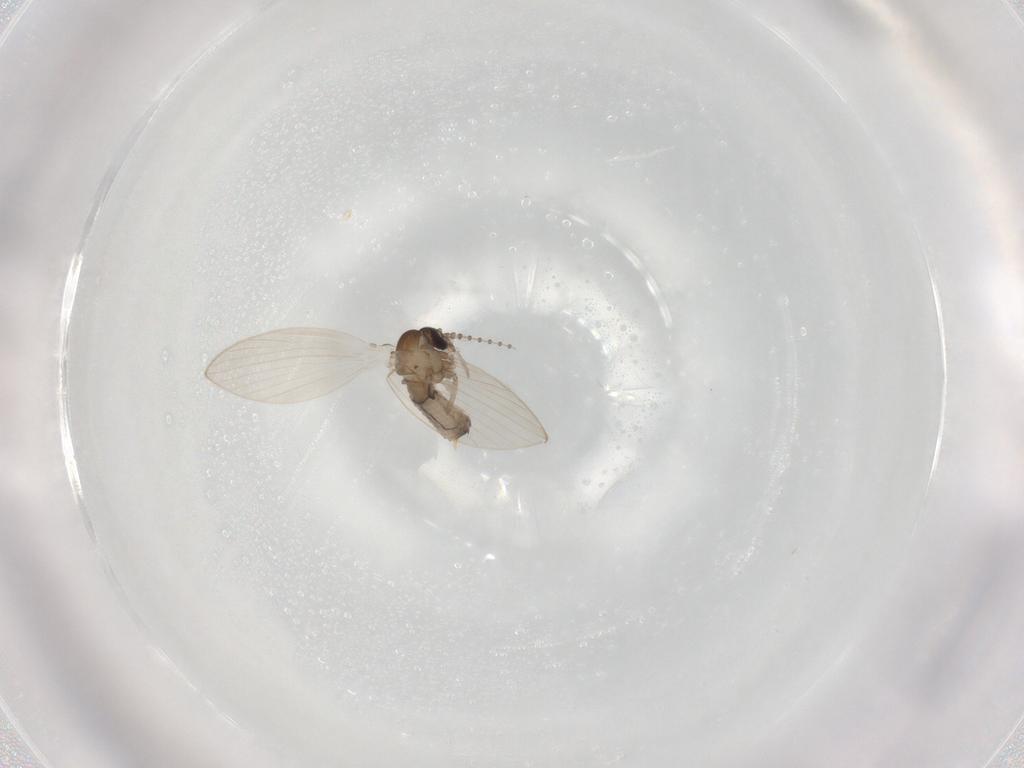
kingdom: Animalia
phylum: Arthropoda
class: Insecta
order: Diptera
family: Psychodidae
